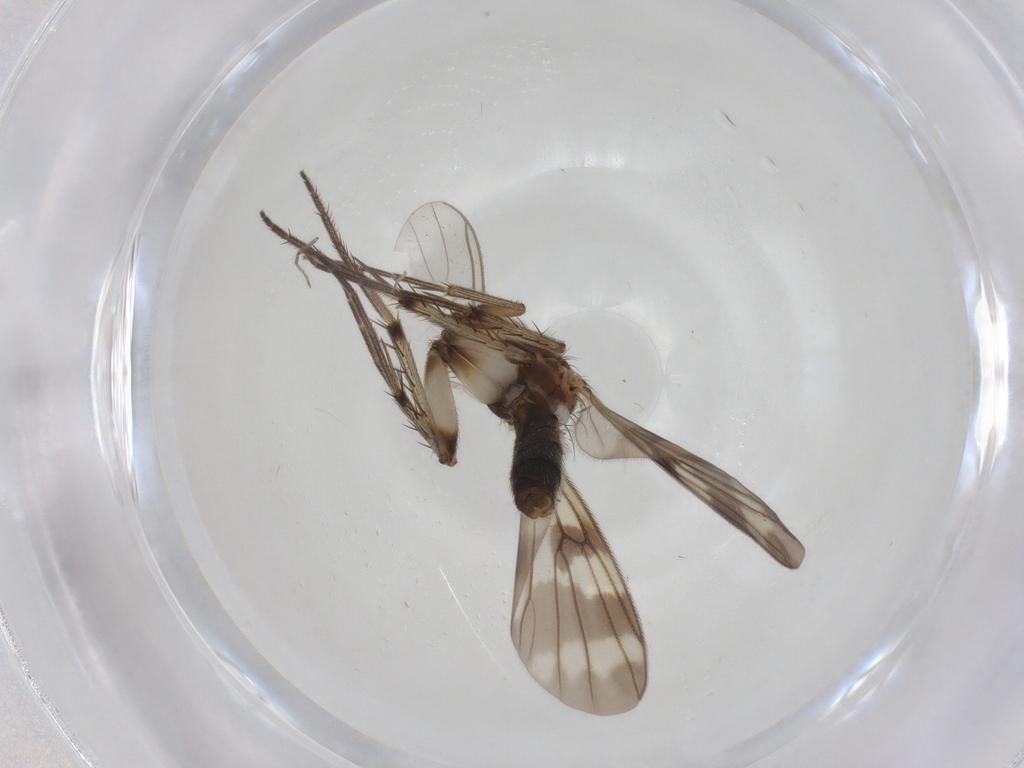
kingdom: Animalia
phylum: Arthropoda
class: Insecta
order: Diptera
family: Mycetophilidae
